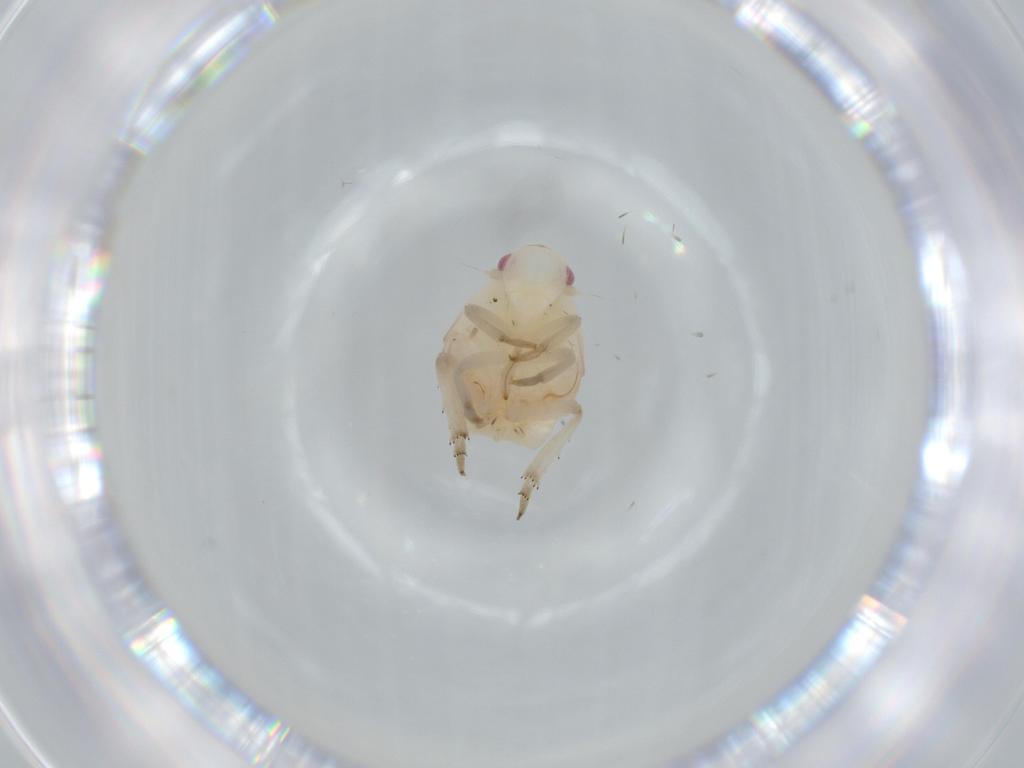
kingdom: Animalia
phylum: Arthropoda
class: Insecta
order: Hemiptera
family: Flatidae
